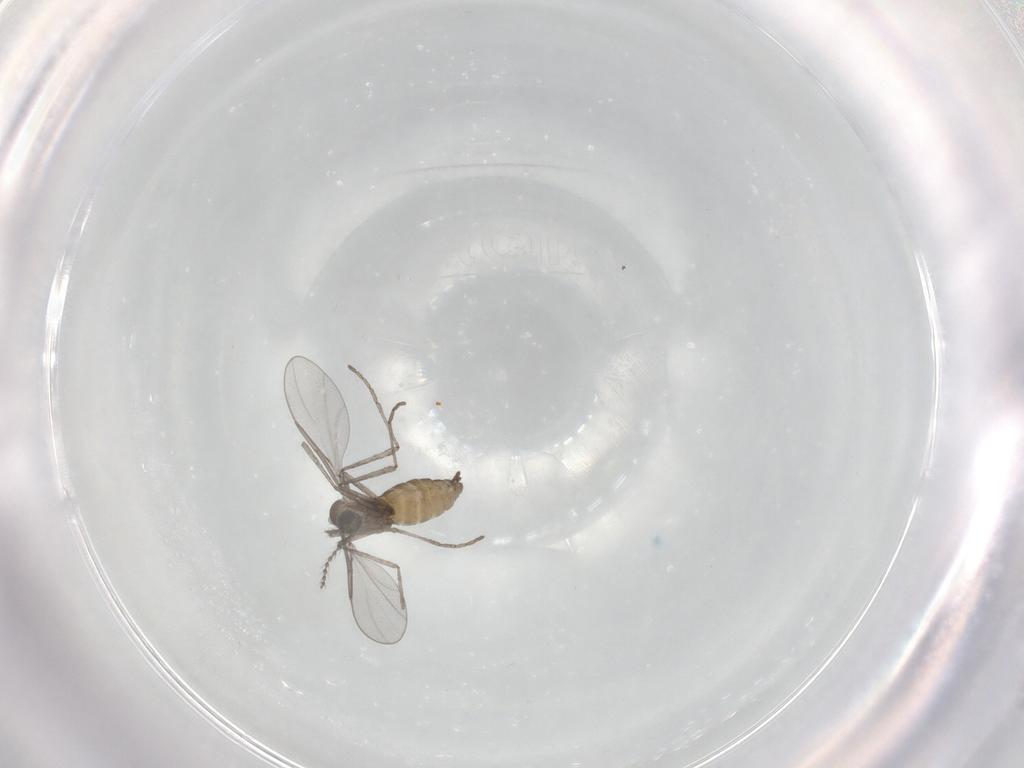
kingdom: Animalia
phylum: Arthropoda
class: Insecta
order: Diptera
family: Cecidomyiidae
